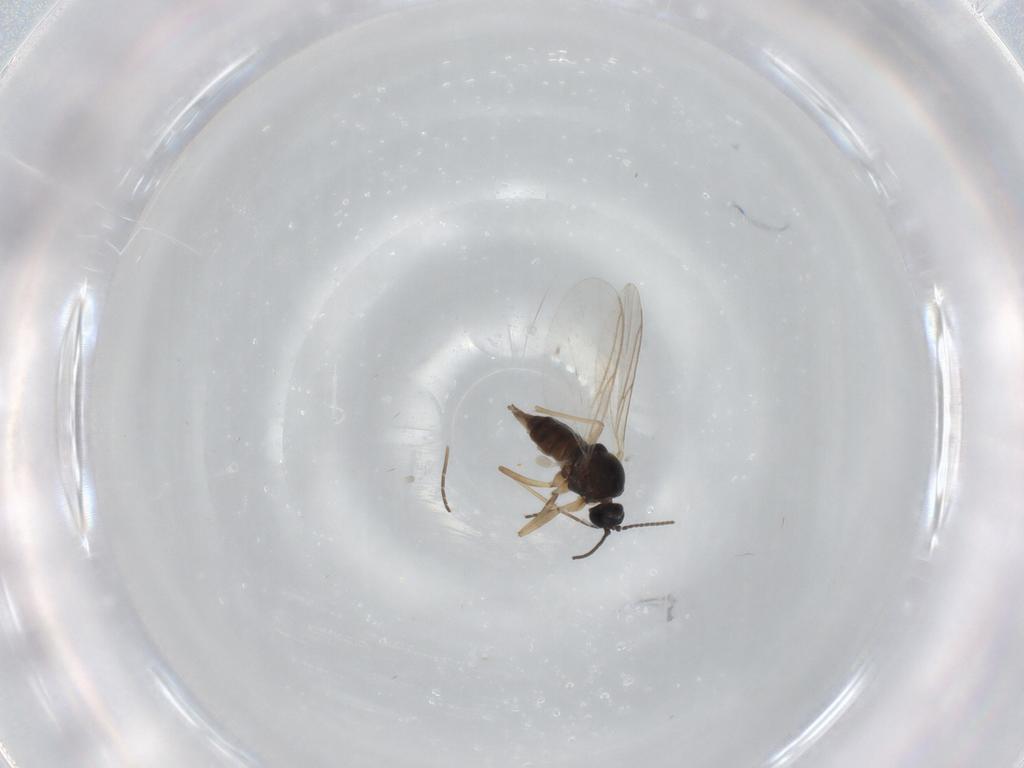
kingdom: Animalia
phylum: Arthropoda
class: Insecta
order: Diptera
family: Sciaridae
